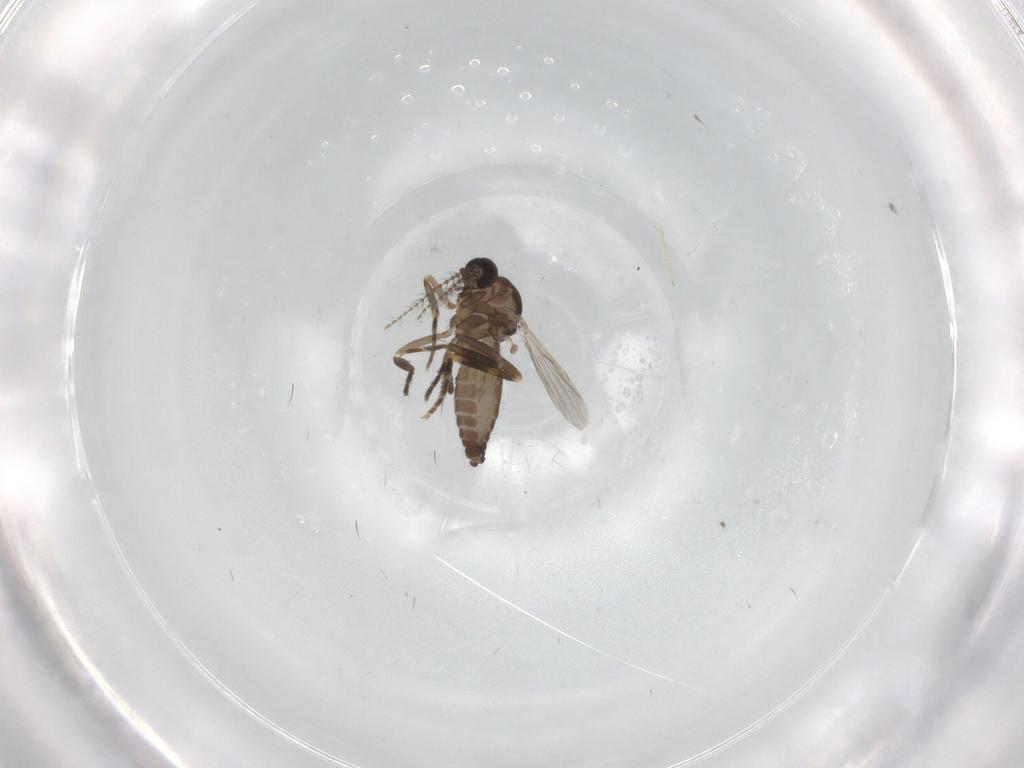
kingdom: Animalia
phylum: Arthropoda
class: Insecta
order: Diptera
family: Ceratopogonidae
